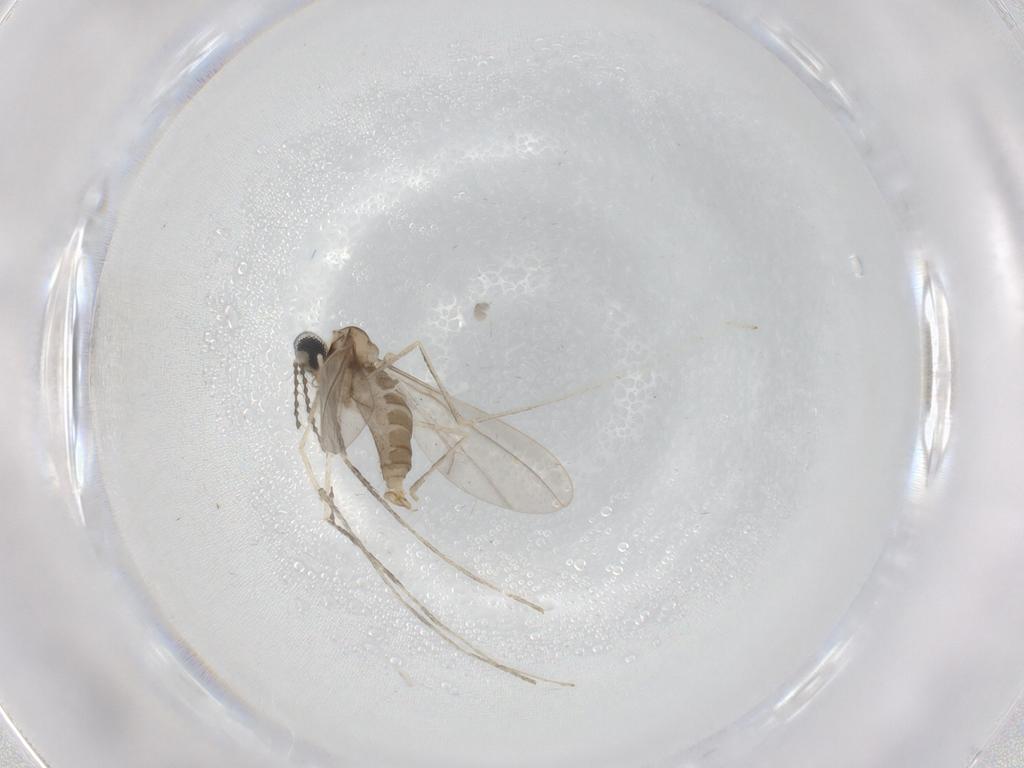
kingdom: Animalia
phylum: Arthropoda
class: Insecta
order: Diptera
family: Cecidomyiidae
